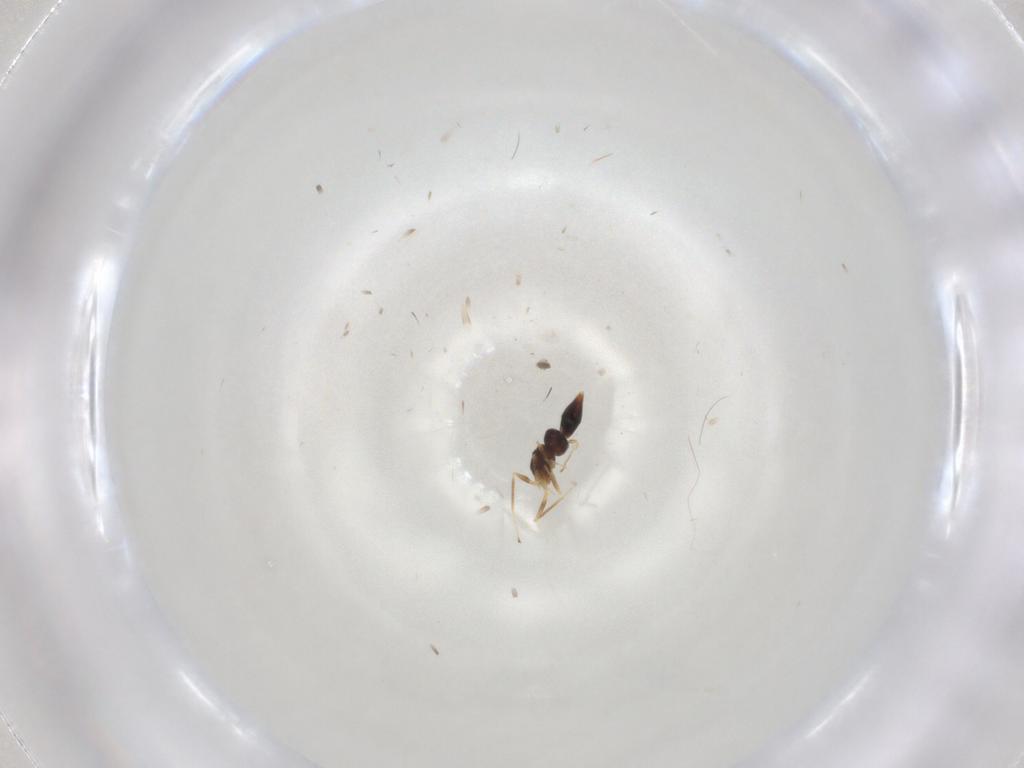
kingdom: Animalia
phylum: Arthropoda
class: Insecta
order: Hymenoptera
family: Mymaridae
